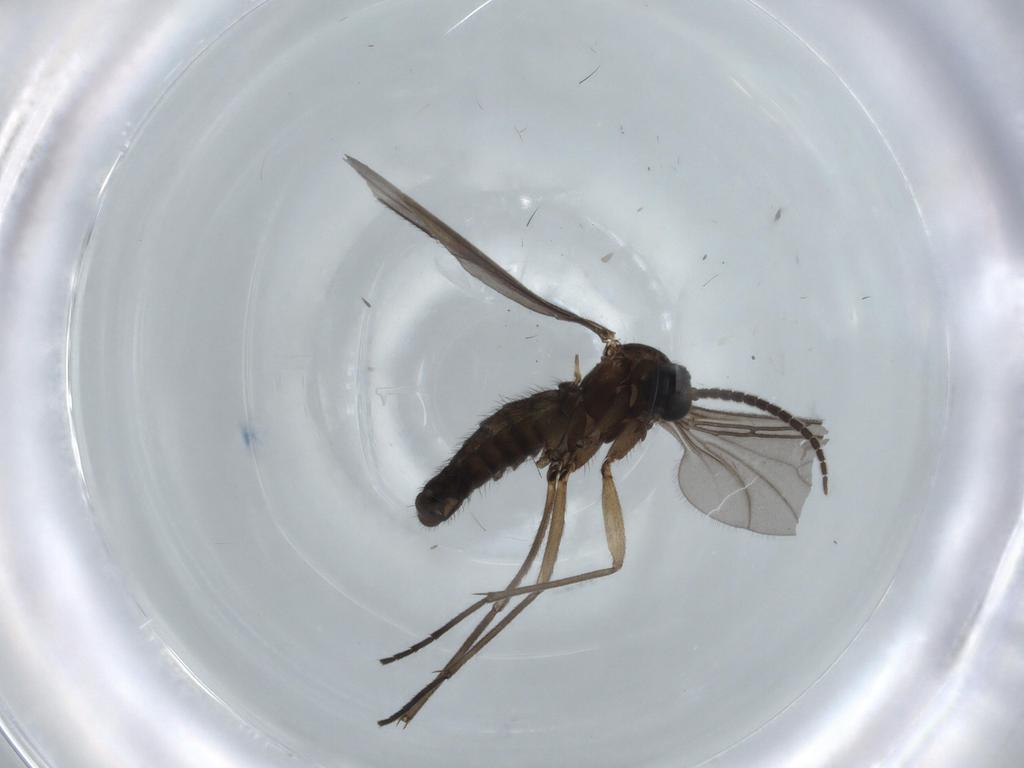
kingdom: Animalia
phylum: Arthropoda
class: Insecta
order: Diptera
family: Sciaridae
